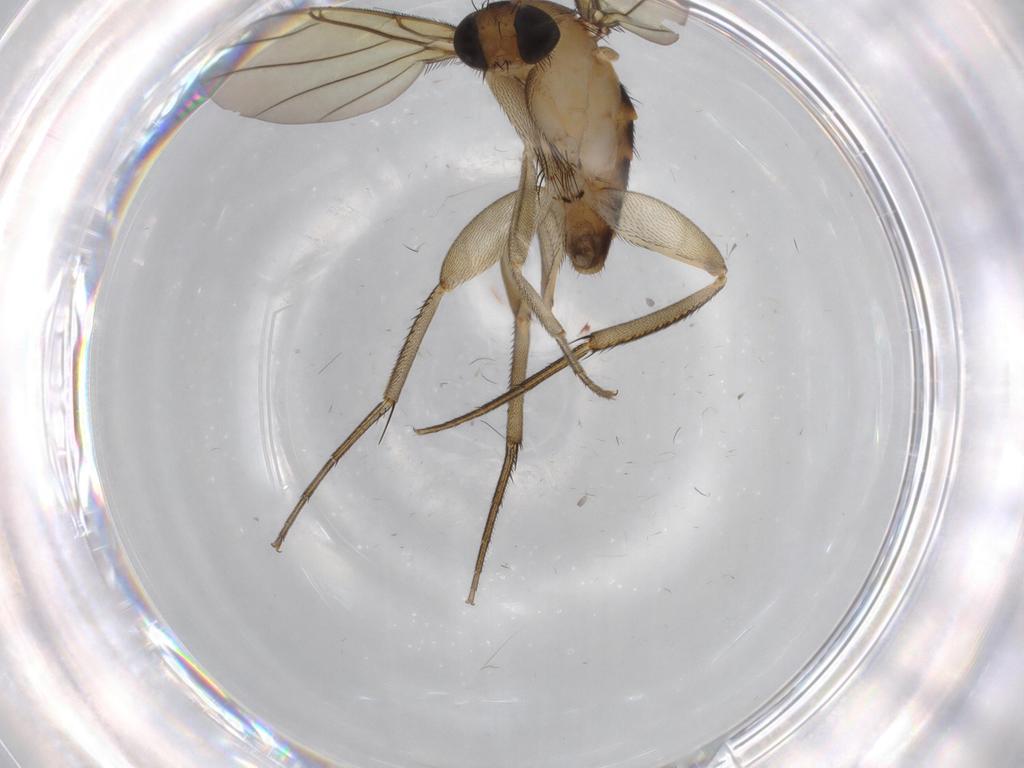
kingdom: Animalia
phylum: Arthropoda
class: Insecta
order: Diptera
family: Phoridae
